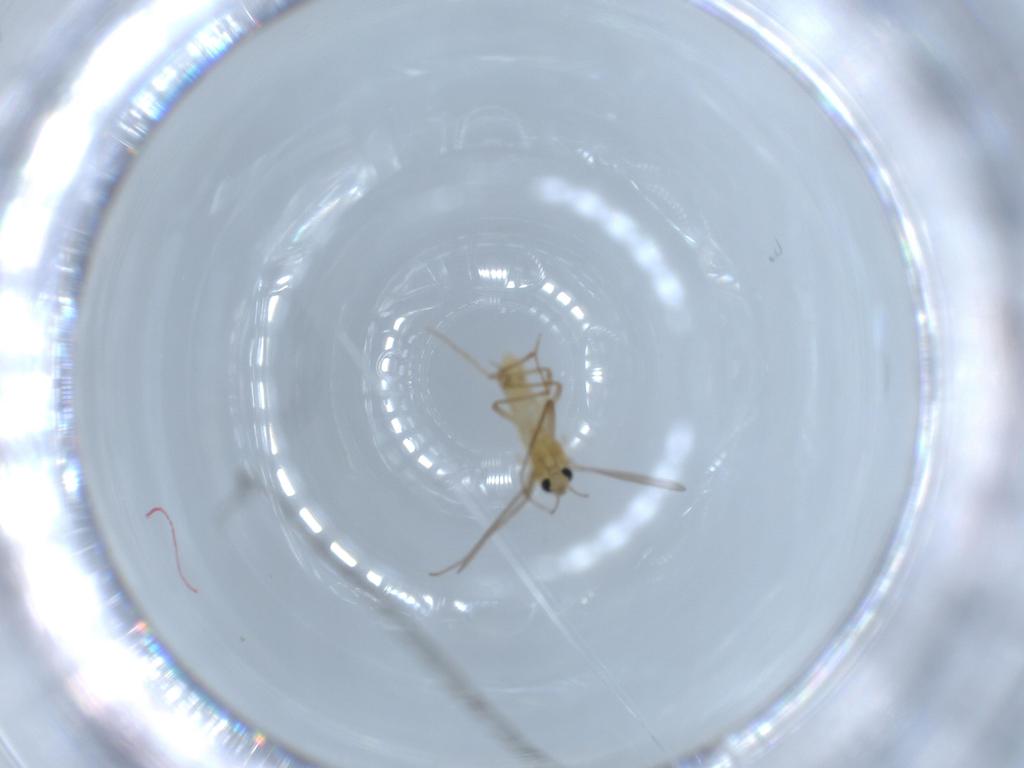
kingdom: Animalia
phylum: Arthropoda
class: Insecta
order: Diptera
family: Chironomidae
